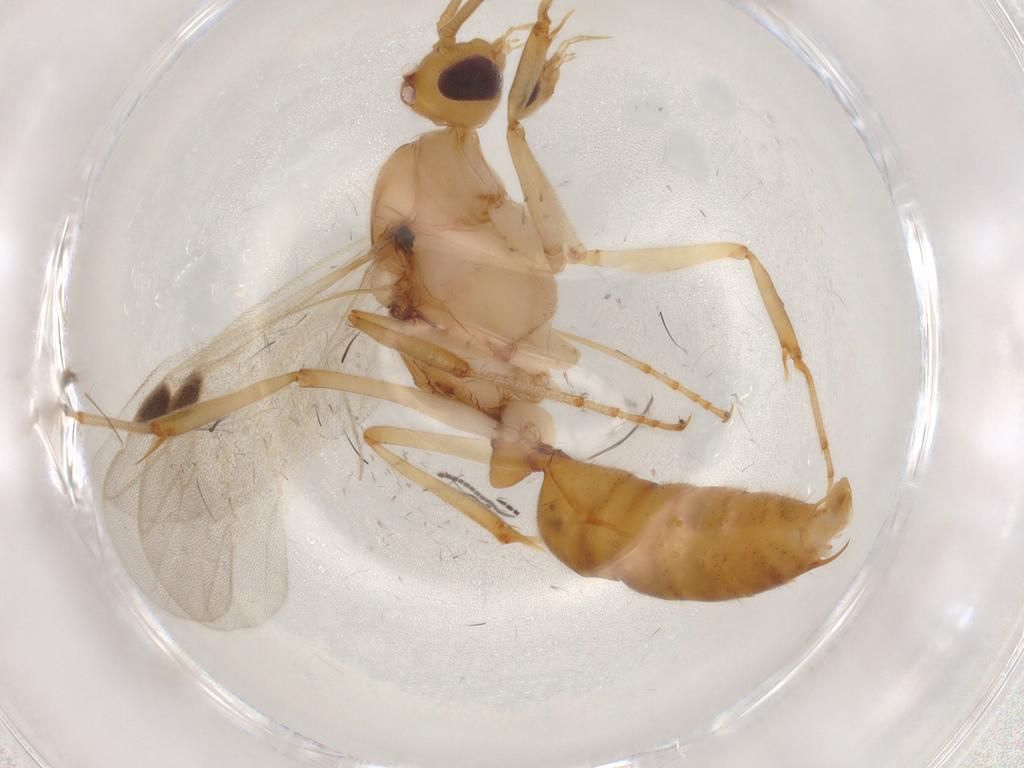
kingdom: Animalia
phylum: Arthropoda
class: Insecta
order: Hymenoptera
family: Formicidae
